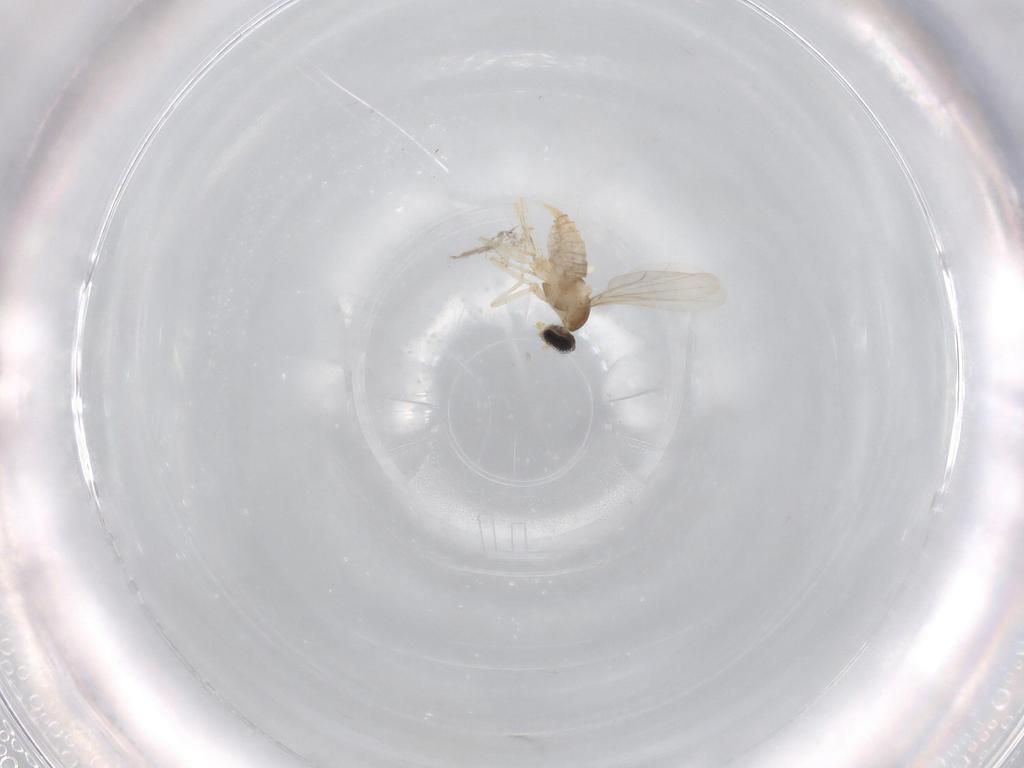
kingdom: Animalia
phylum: Arthropoda
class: Insecta
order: Diptera
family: Cecidomyiidae
